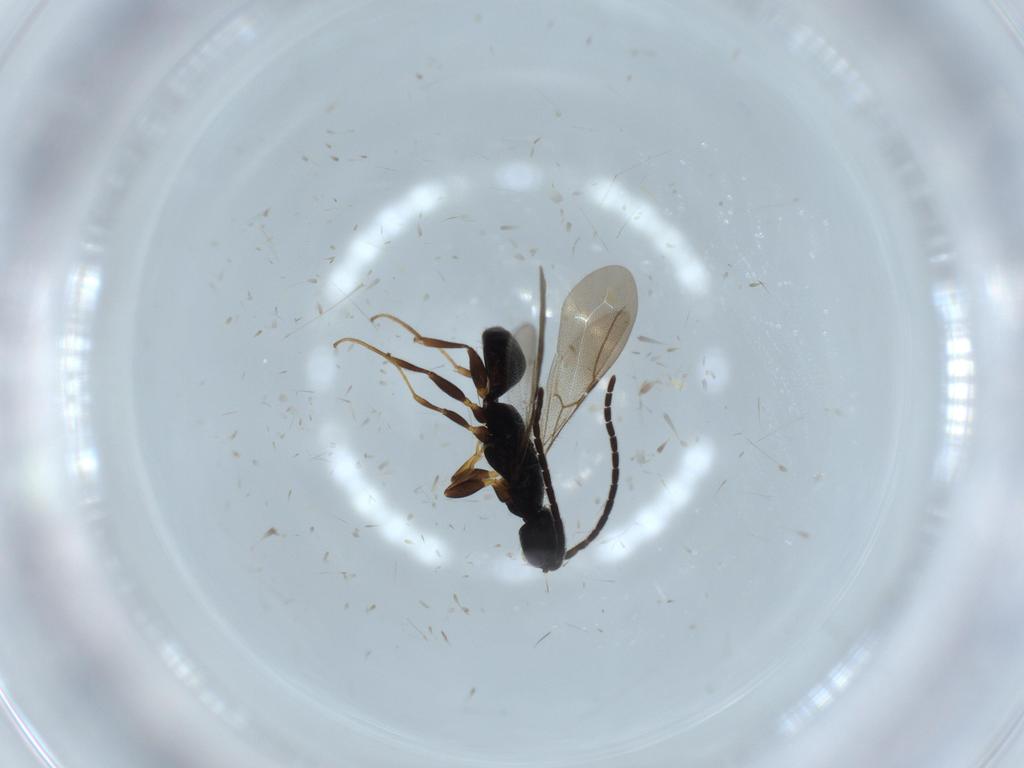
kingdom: Animalia
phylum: Arthropoda
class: Insecta
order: Hymenoptera
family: Bethylidae
